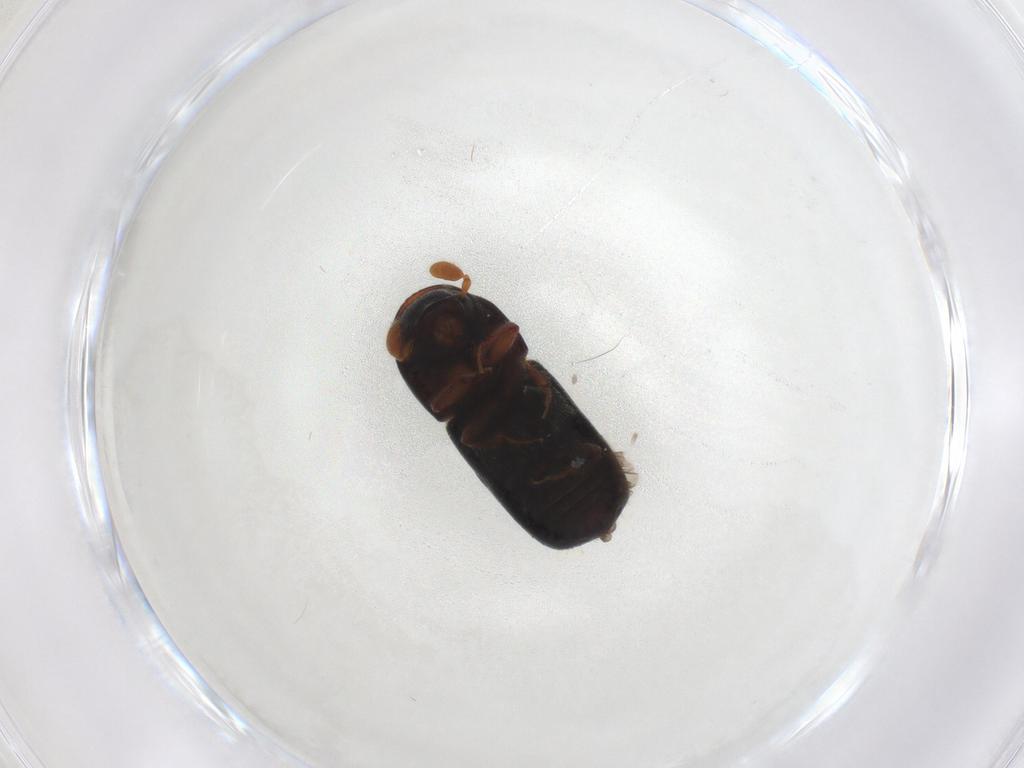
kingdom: Animalia
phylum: Arthropoda
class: Insecta
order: Coleoptera
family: Curculionidae
